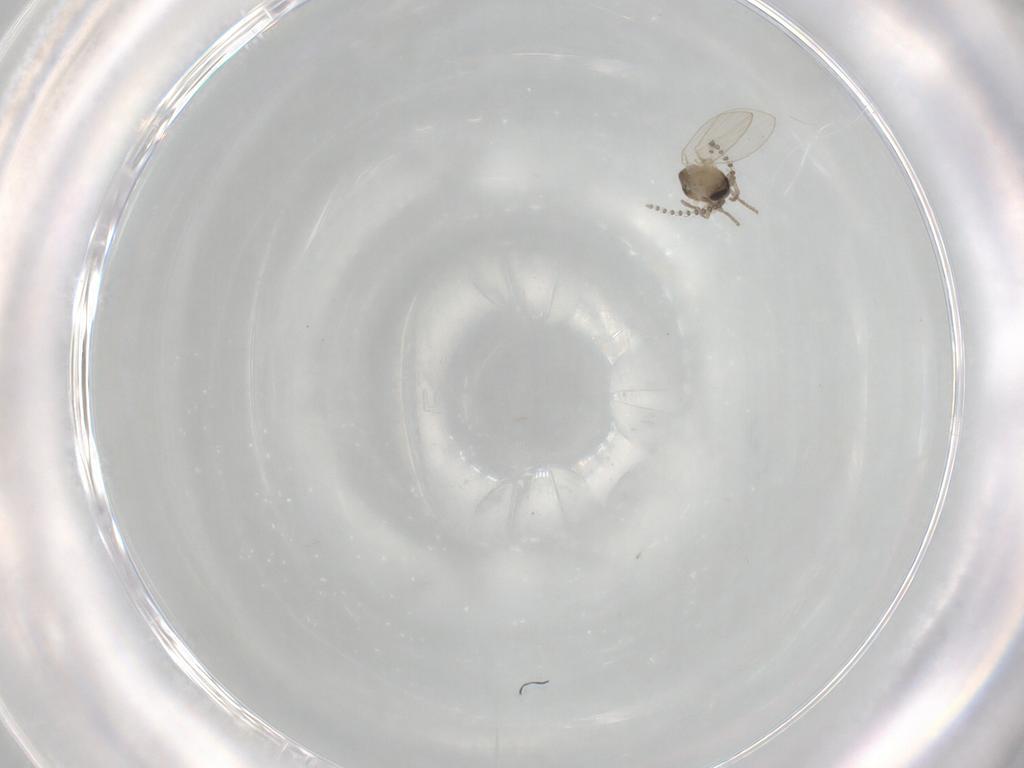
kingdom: Animalia
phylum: Arthropoda
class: Insecta
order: Diptera
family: Psychodidae
